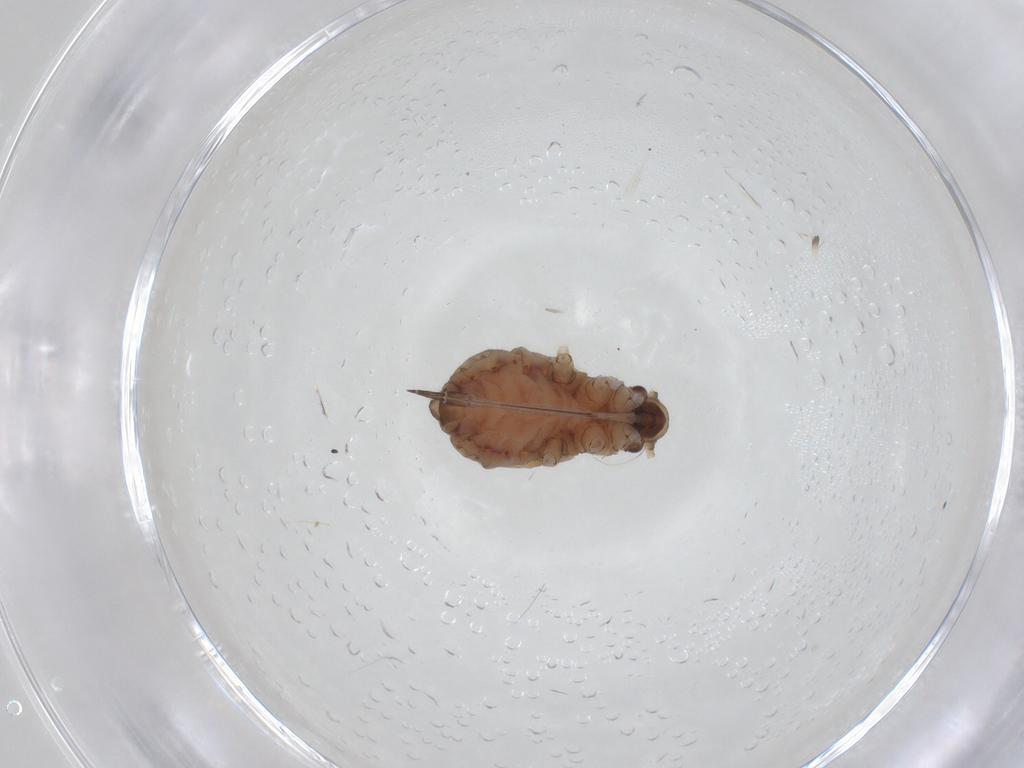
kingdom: Animalia
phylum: Arthropoda
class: Insecta
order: Hemiptera
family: Aphididae
